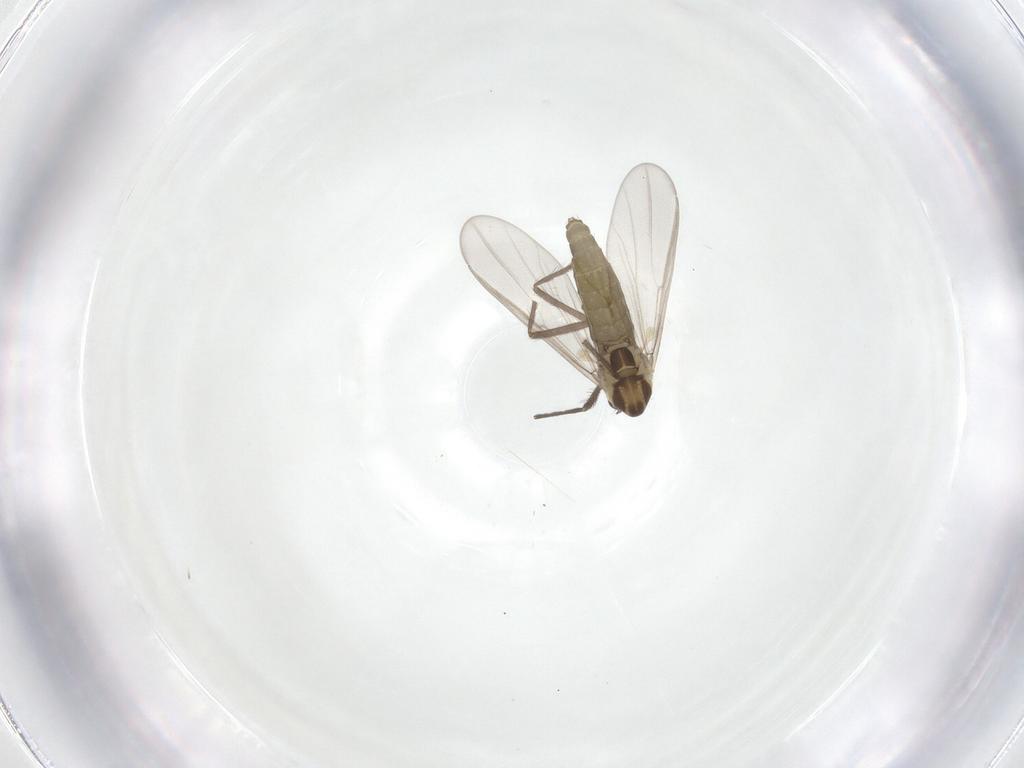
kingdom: Animalia
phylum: Arthropoda
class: Insecta
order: Diptera
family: Chironomidae
